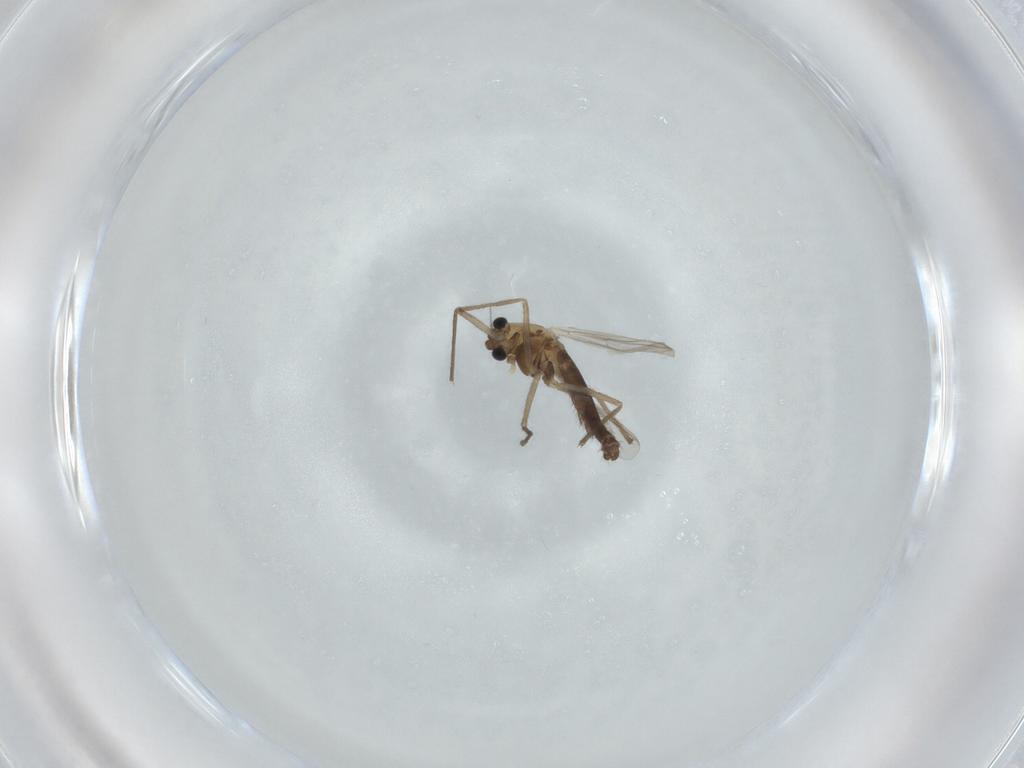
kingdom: Animalia
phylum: Arthropoda
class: Insecta
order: Diptera
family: Chironomidae
